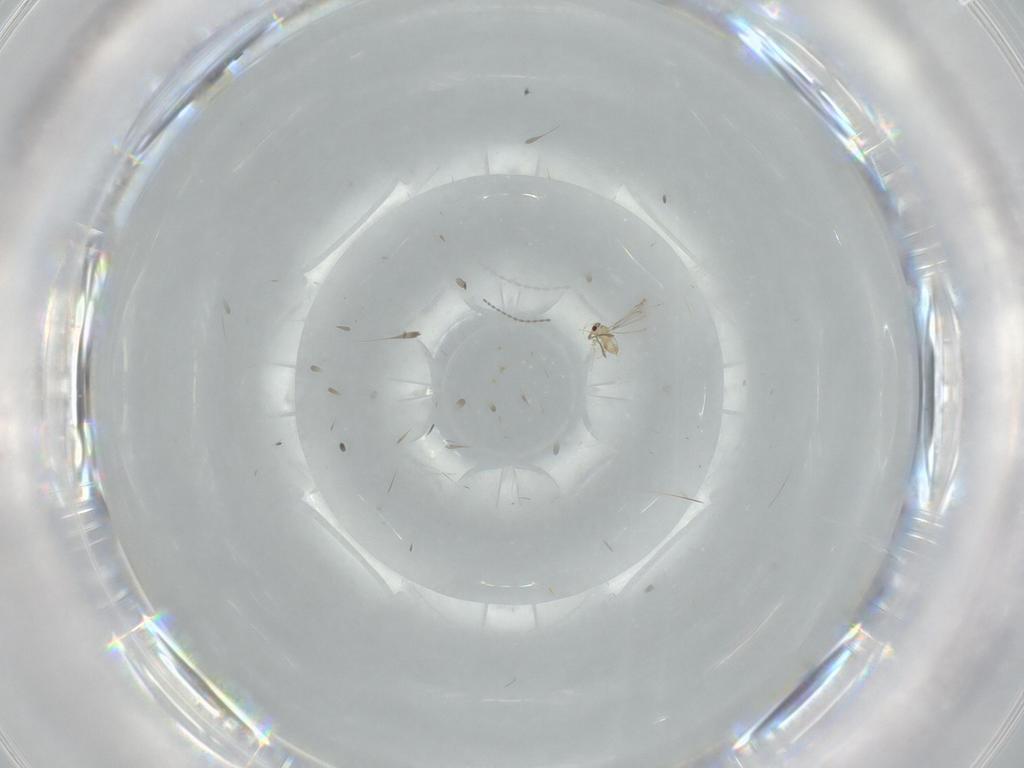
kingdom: Animalia
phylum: Arthropoda
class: Insecta
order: Hymenoptera
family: Mymaridae
